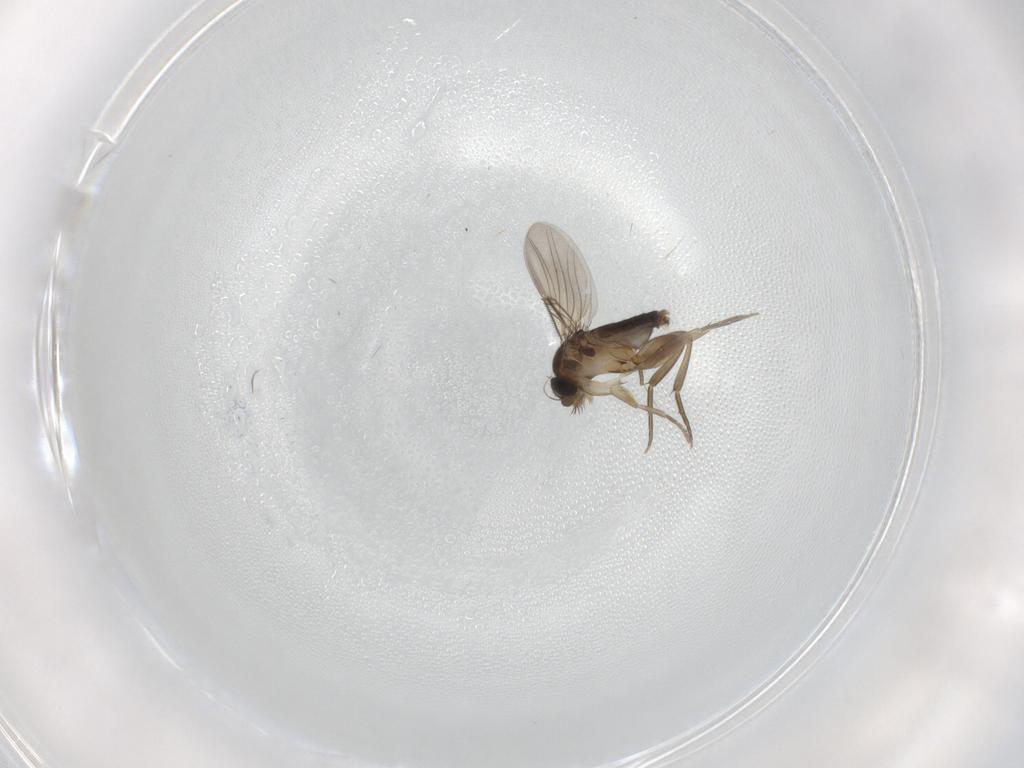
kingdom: Animalia
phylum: Arthropoda
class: Insecta
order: Diptera
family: Phoridae
